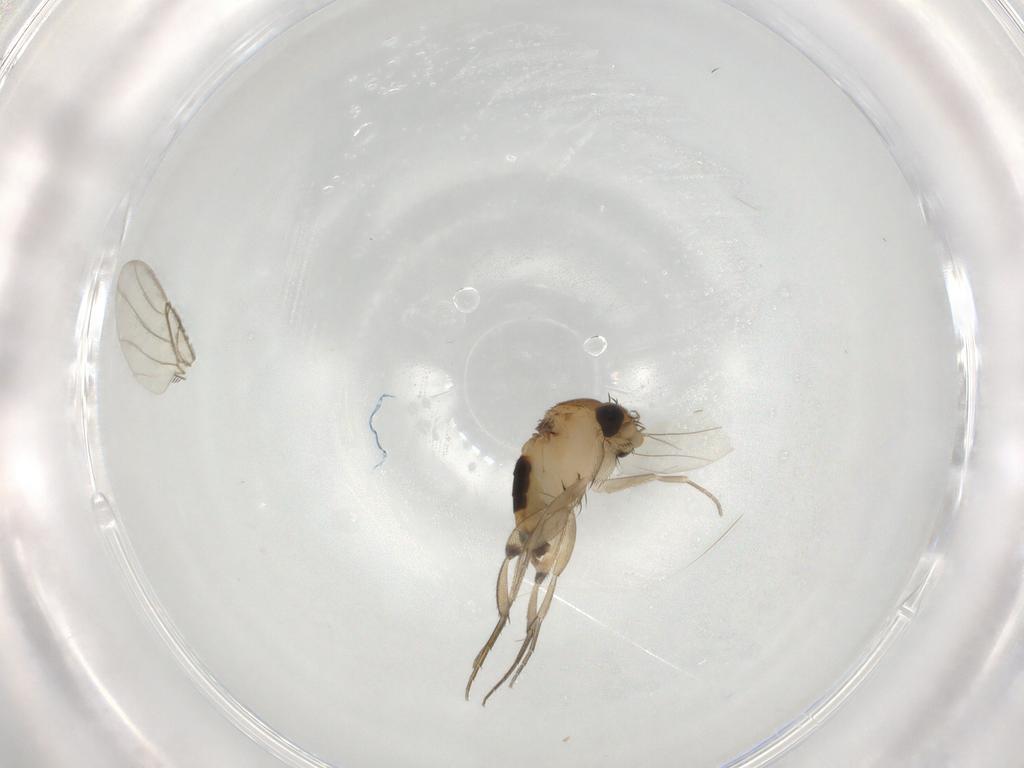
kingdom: Animalia
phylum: Arthropoda
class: Insecta
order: Diptera
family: Phoridae
